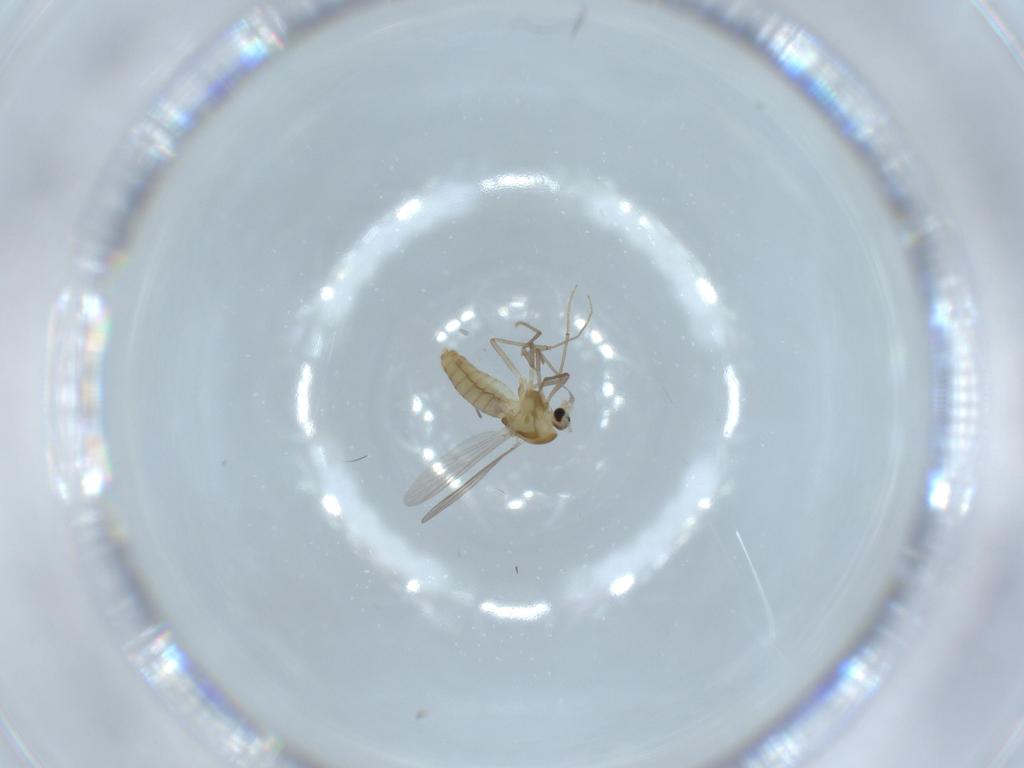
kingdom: Animalia
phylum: Arthropoda
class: Insecta
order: Diptera
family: Chironomidae
